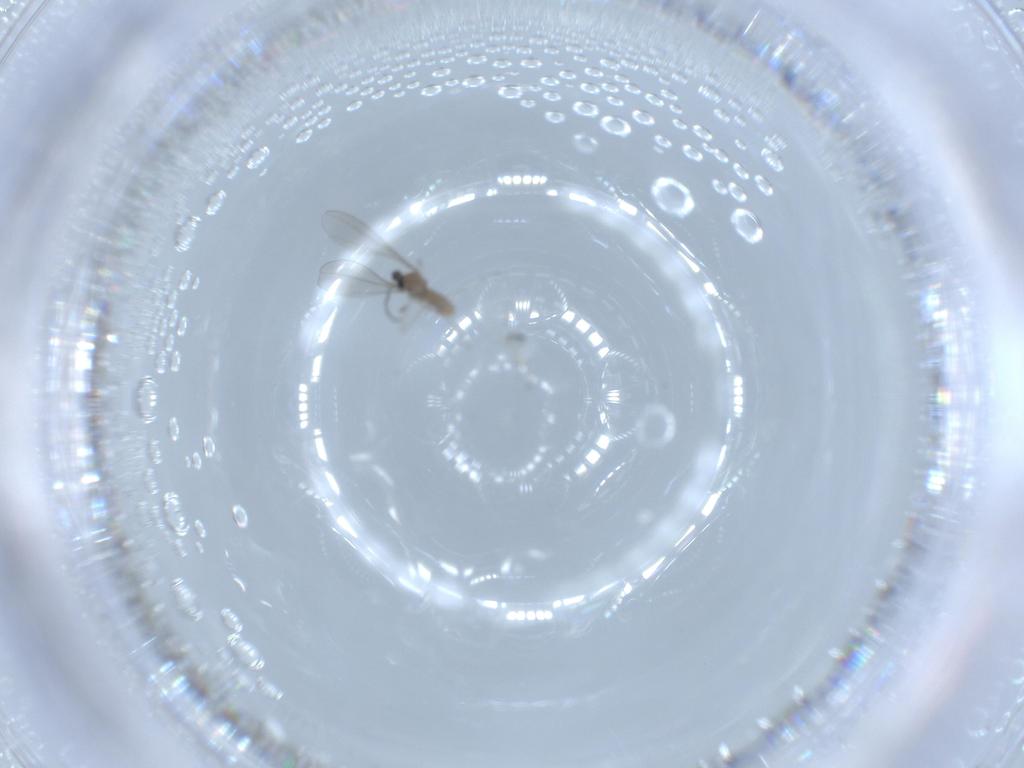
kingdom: Animalia
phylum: Arthropoda
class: Insecta
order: Diptera
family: Cecidomyiidae
